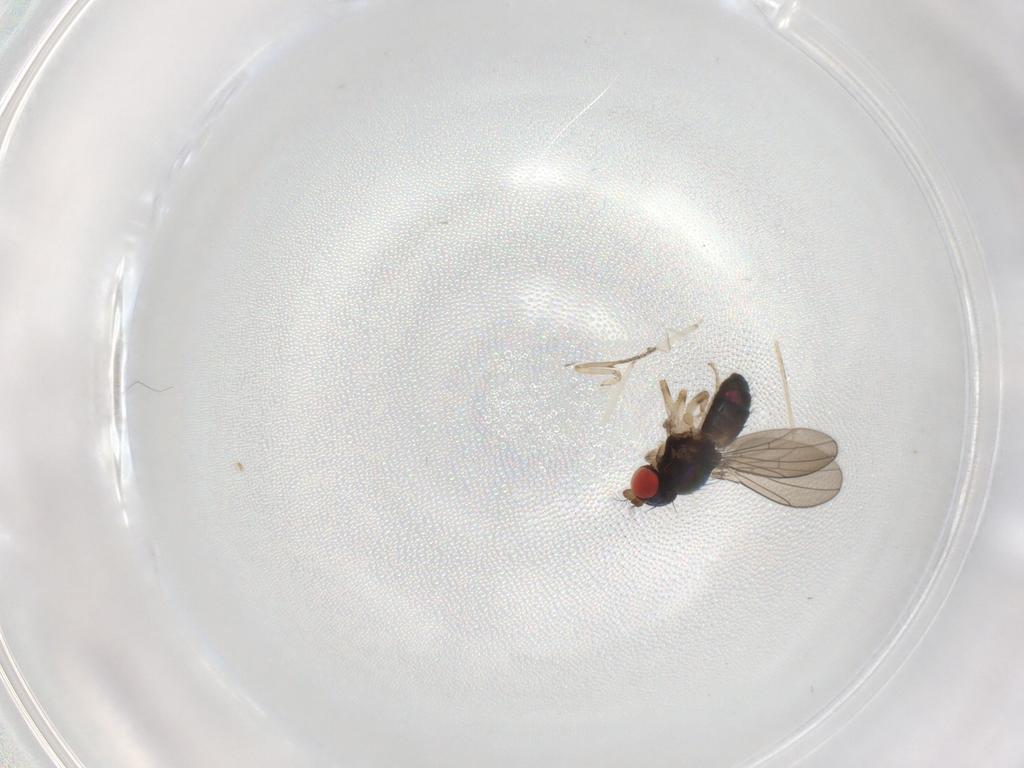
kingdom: Animalia
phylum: Arthropoda
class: Insecta
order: Diptera
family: Drosophilidae
